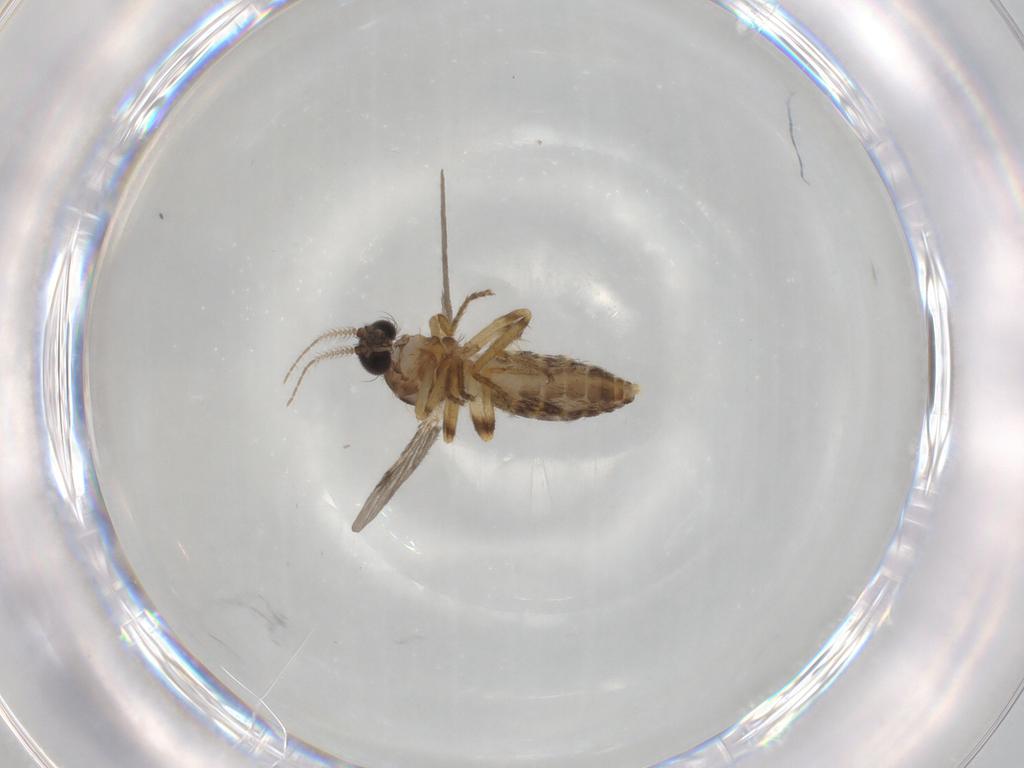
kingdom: Animalia
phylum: Arthropoda
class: Insecta
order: Diptera
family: Ceratopogonidae
